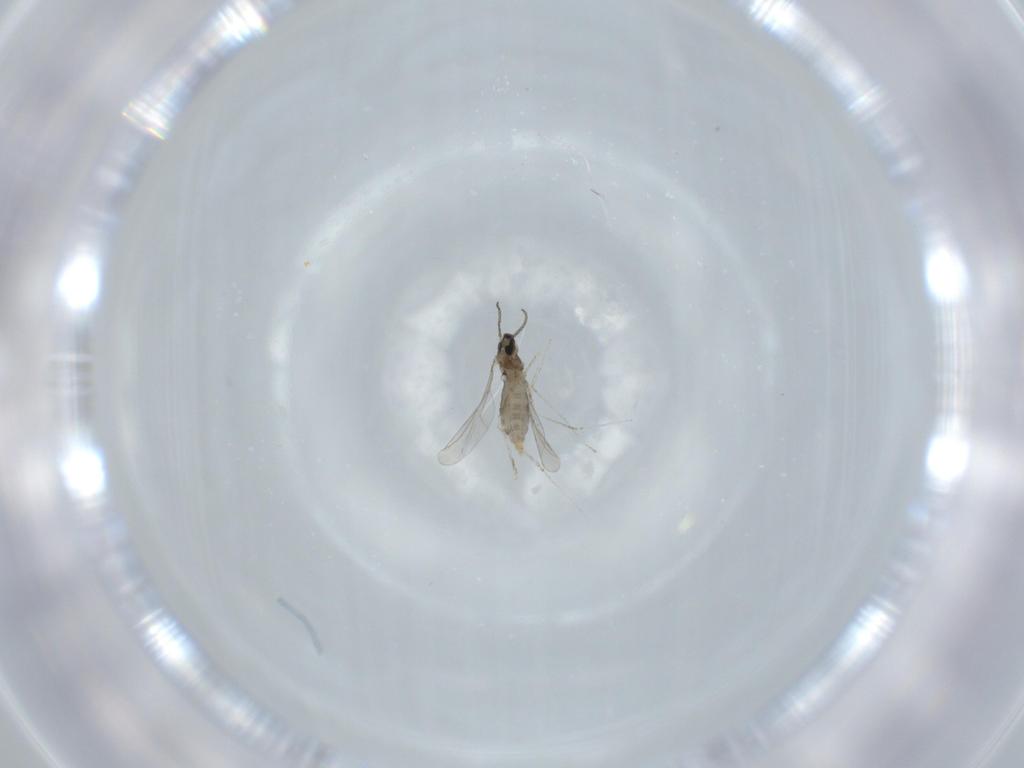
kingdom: Animalia
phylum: Arthropoda
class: Insecta
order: Diptera
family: Cecidomyiidae
